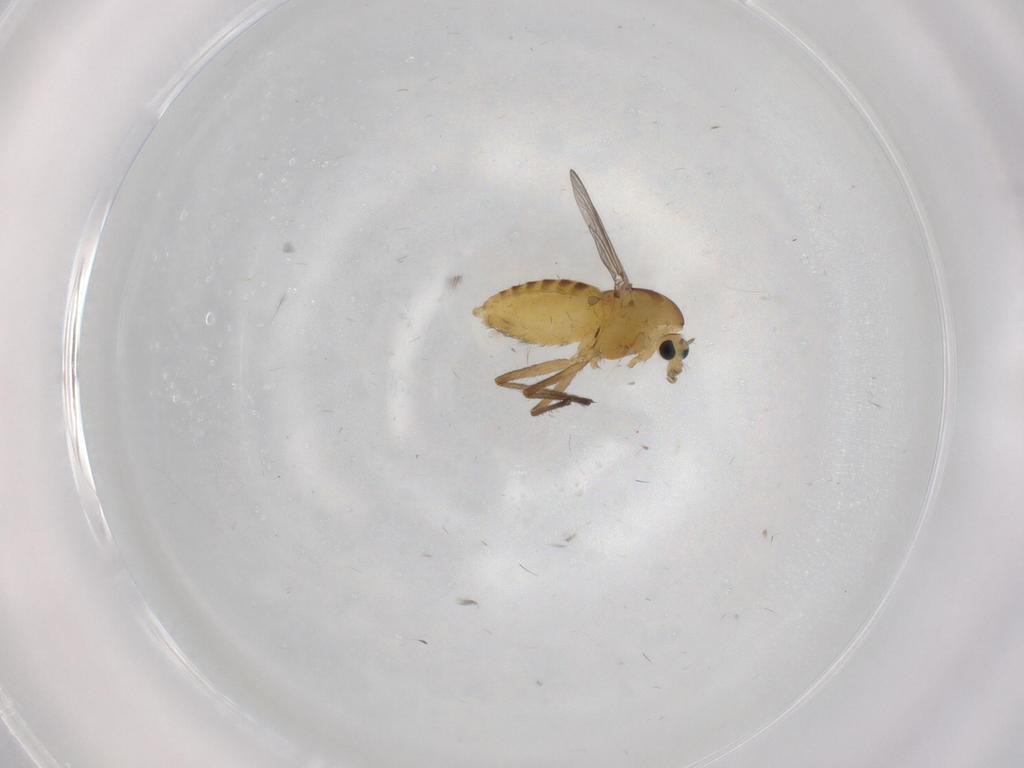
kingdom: Animalia
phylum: Arthropoda
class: Insecta
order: Diptera
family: Chironomidae
